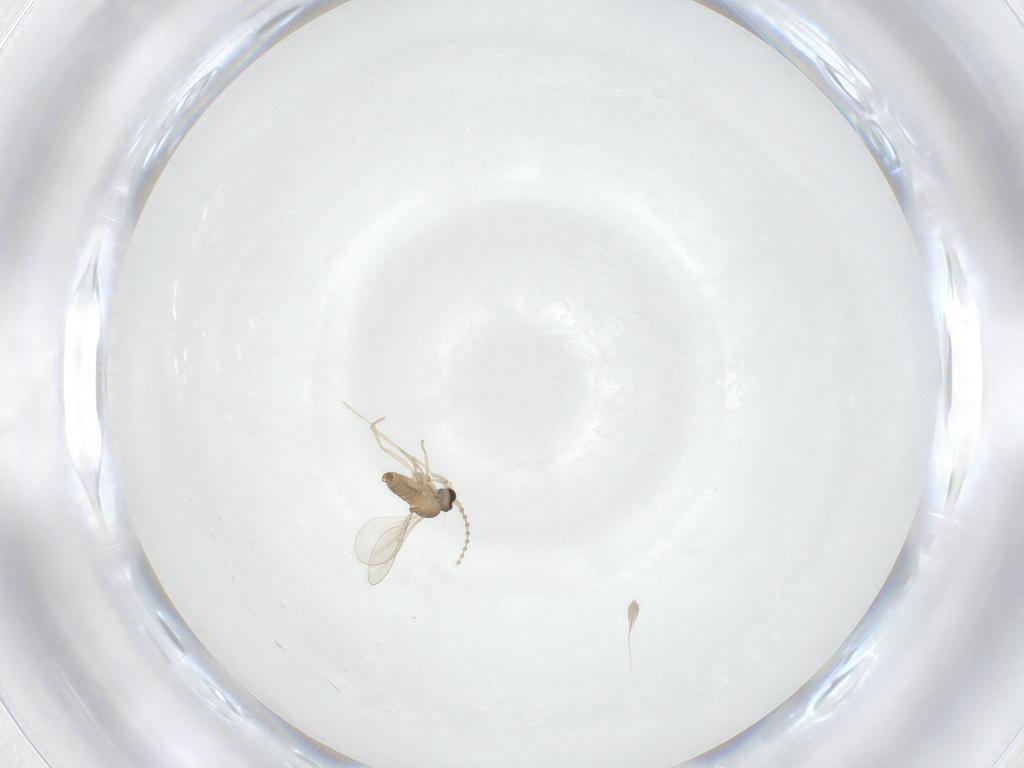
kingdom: Animalia
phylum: Arthropoda
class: Insecta
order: Diptera
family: Cecidomyiidae
